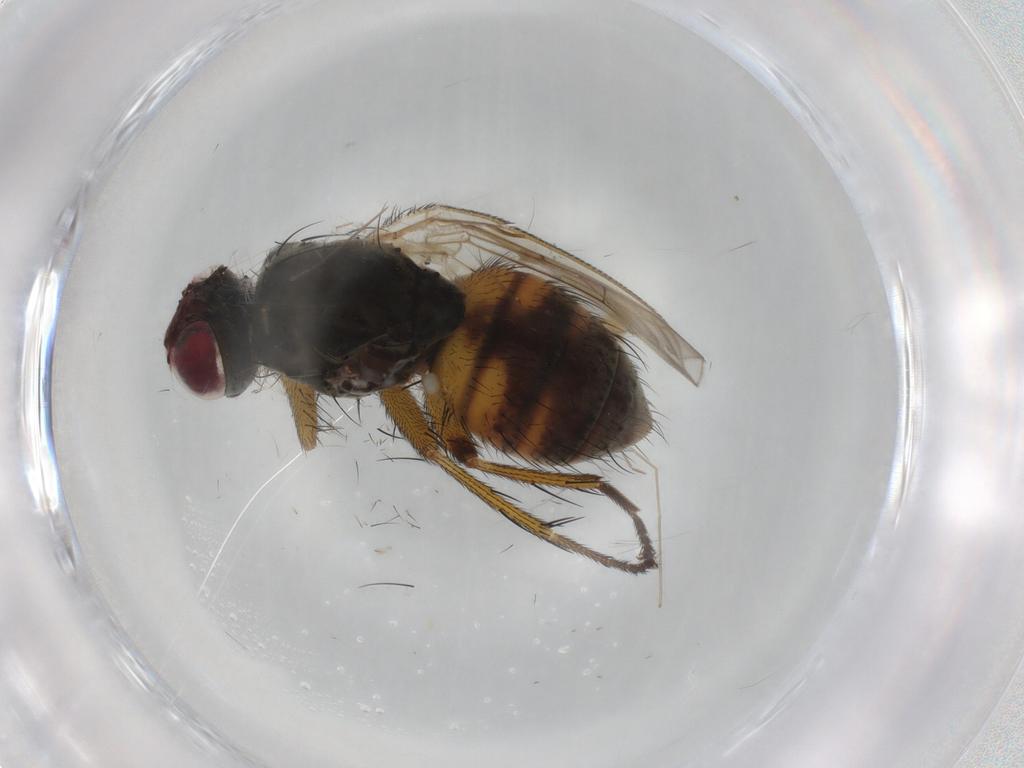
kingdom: Animalia
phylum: Arthropoda
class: Insecta
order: Diptera
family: Muscidae
